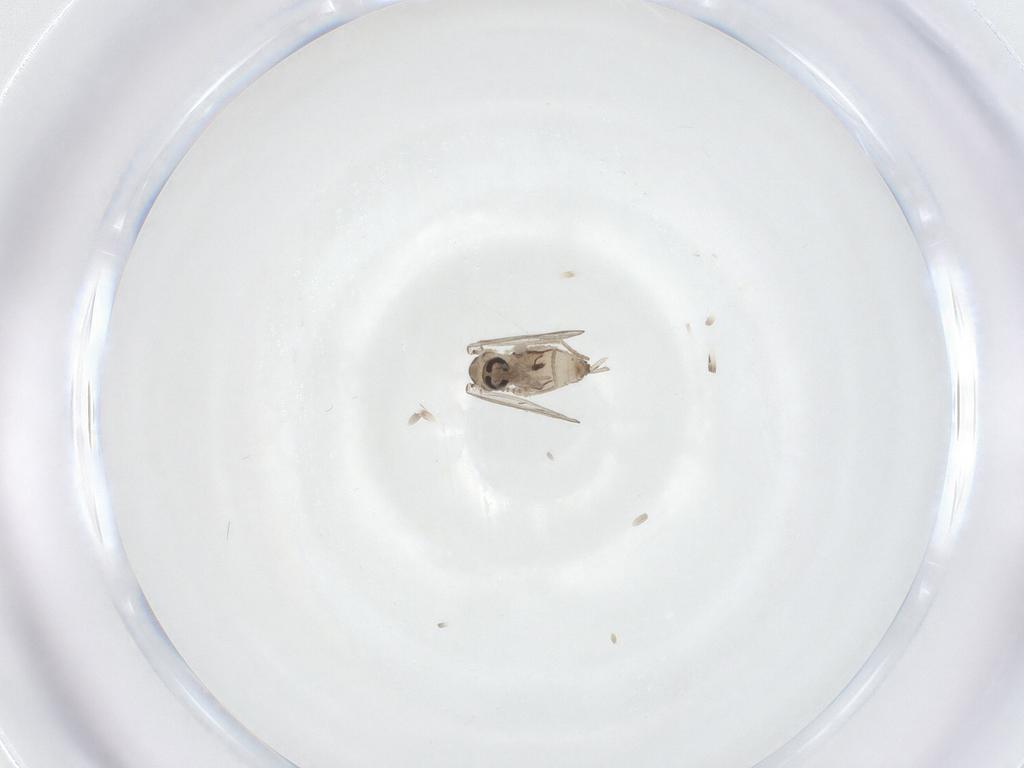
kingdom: Animalia
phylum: Arthropoda
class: Insecta
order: Diptera
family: Psychodidae
